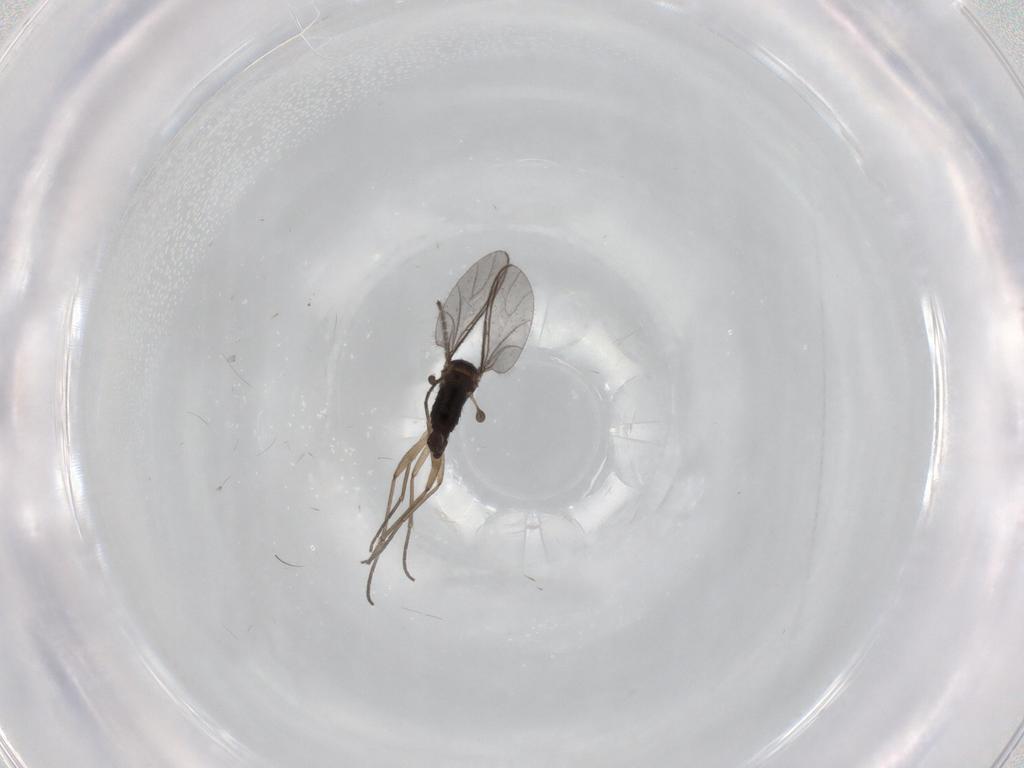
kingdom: Animalia
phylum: Arthropoda
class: Insecta
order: Diptera
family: Sciaridae
